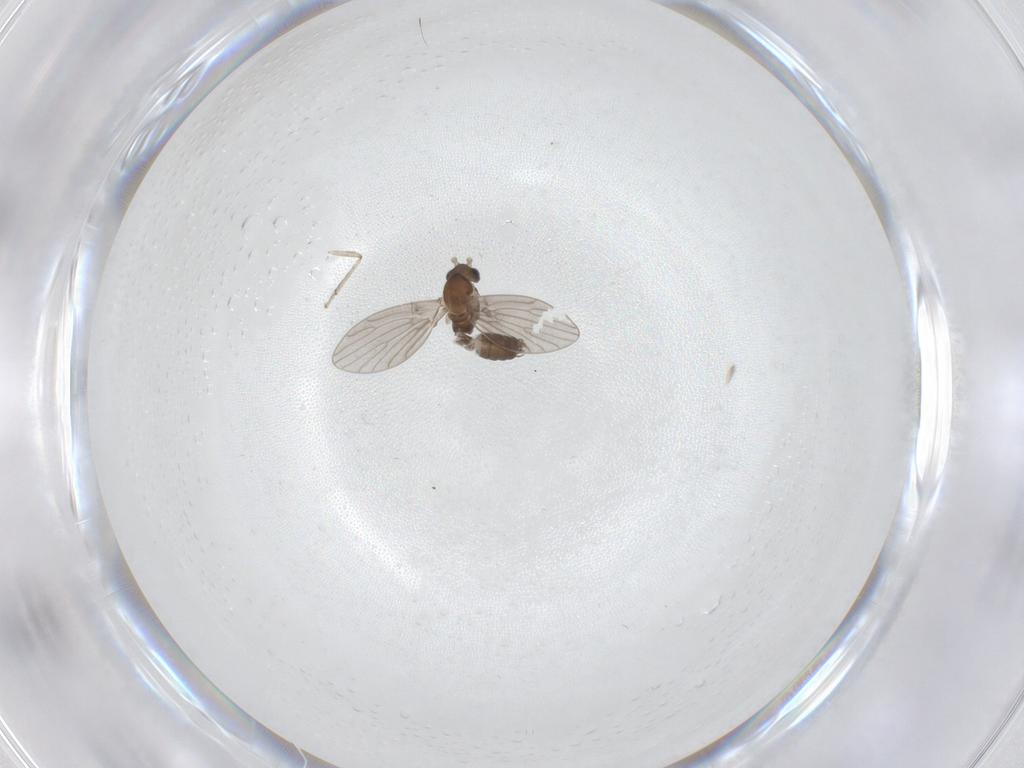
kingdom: Animalia
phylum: Arthropoda
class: Insecta
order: Diptera
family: Psychodidae
